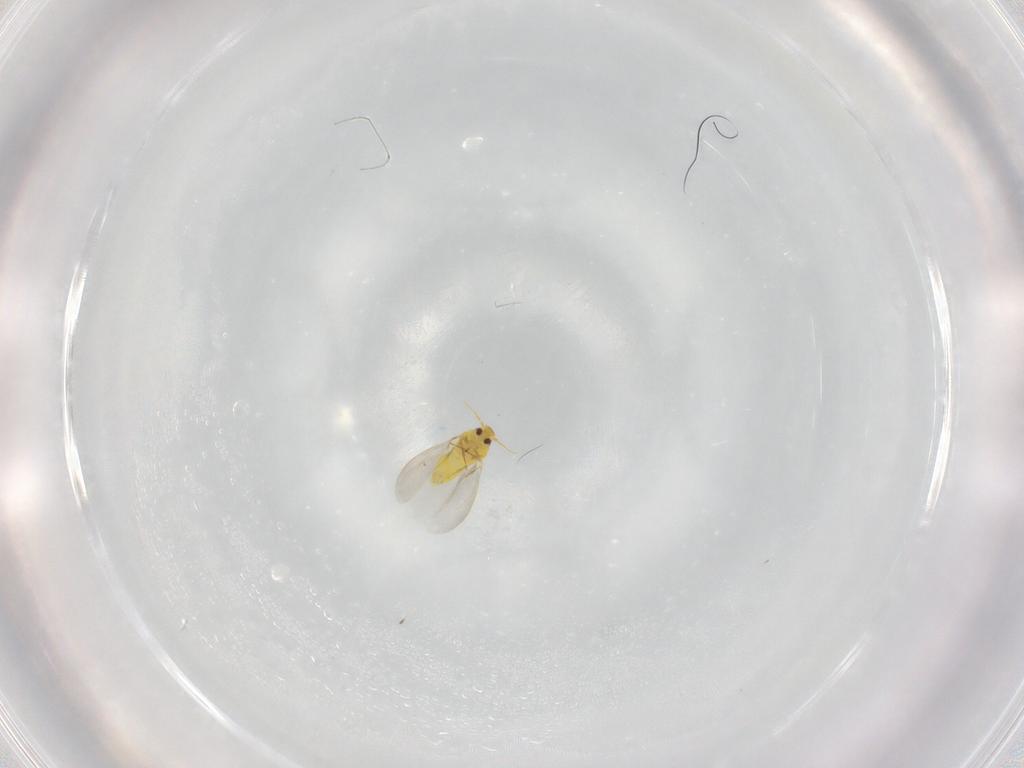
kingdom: Animalia
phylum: Arthropoda
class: Insecta
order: Hemiptera
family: Aleyrodidae
